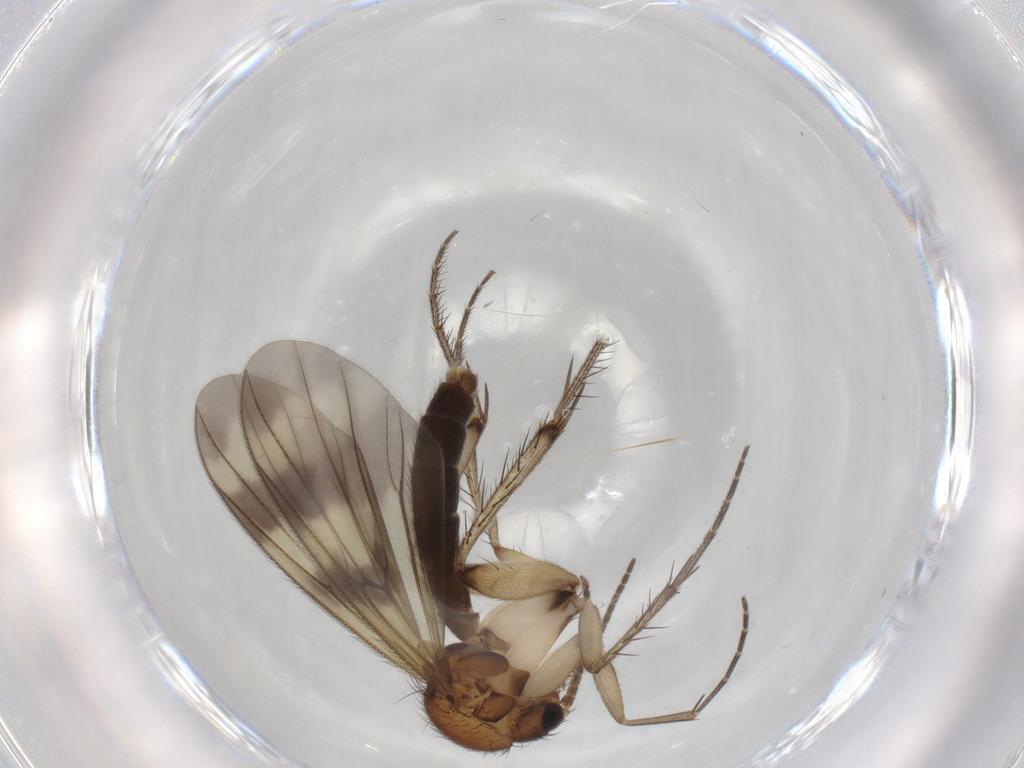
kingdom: Animalia
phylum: Arthropoda
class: Insecta
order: Diptera
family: Mycetophilidae
